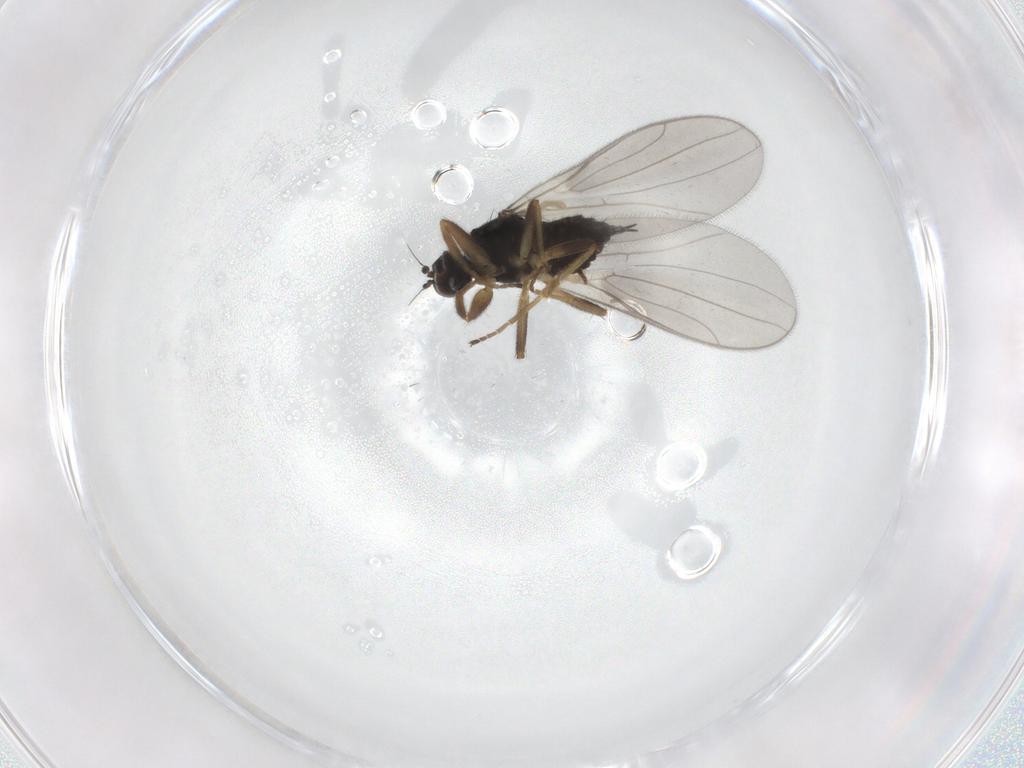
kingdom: Animalia
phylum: Arthropoda
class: Insecta
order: Diptera
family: Hybotidae
